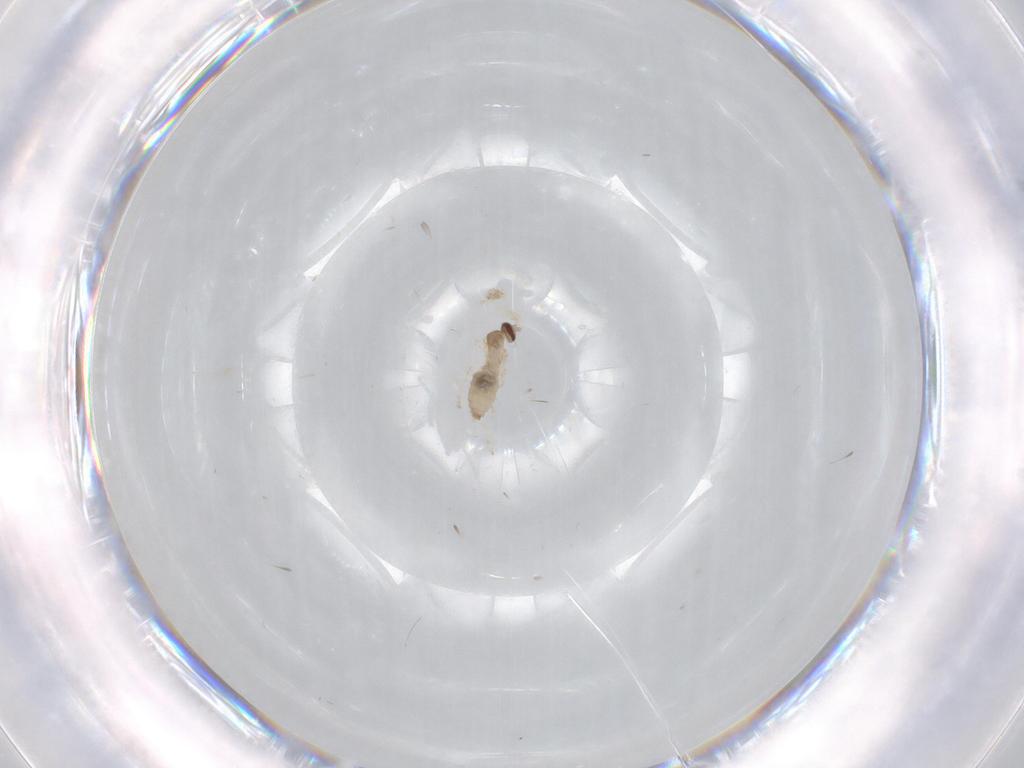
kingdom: Animalia
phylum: Arthropoda
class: Insecta
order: Diptera
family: Cecidomyiidae
